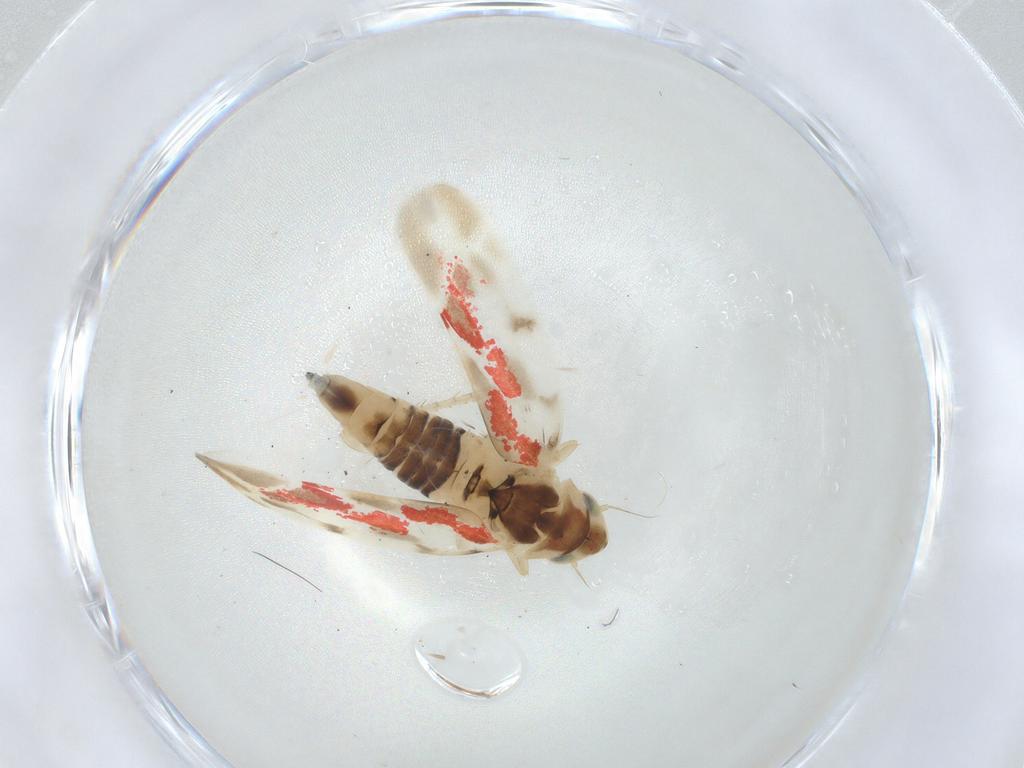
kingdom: Animalia
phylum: Arthropoda
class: Insecta
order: Hemiptera
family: Cicadellidae
